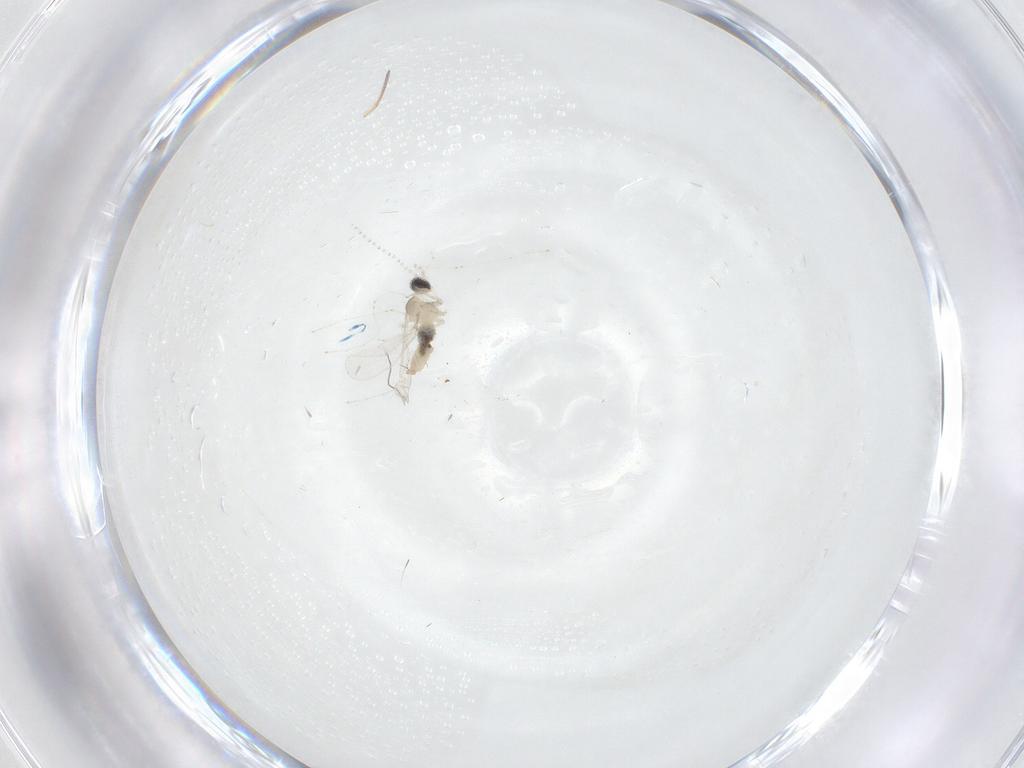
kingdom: Animalia
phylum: Arthropoda
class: Insecta
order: Diptera
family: Cecidomyiidae
